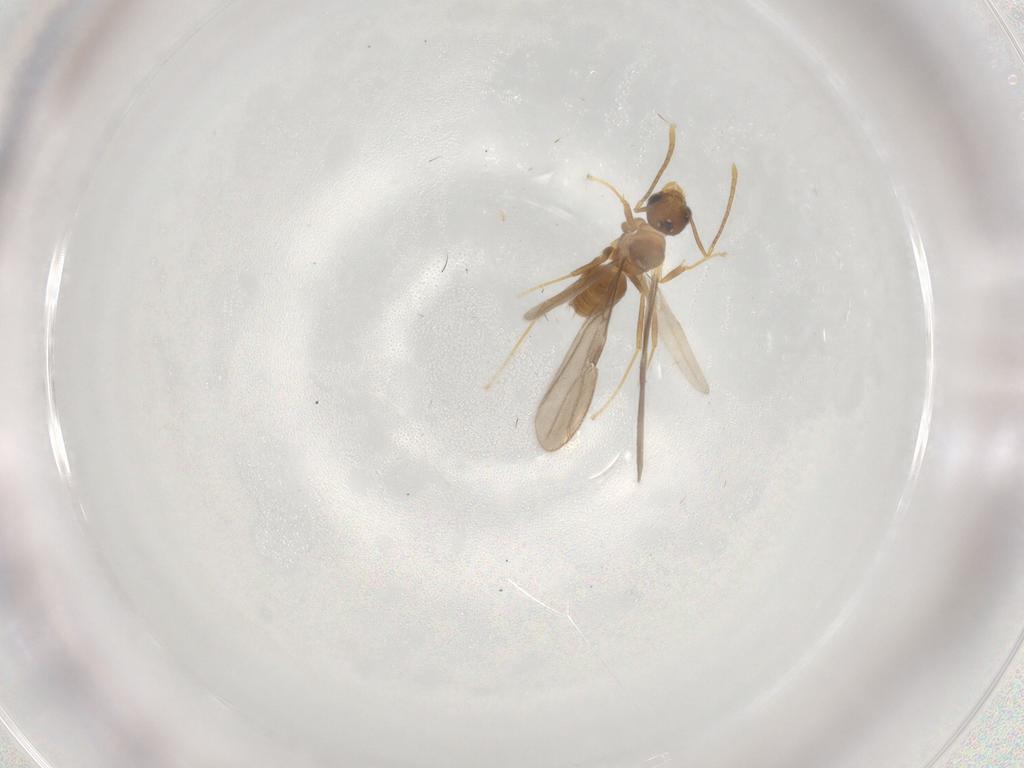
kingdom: Animalia
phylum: Arthropoda
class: Insecta
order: Hymenoptera
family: Formicidae
